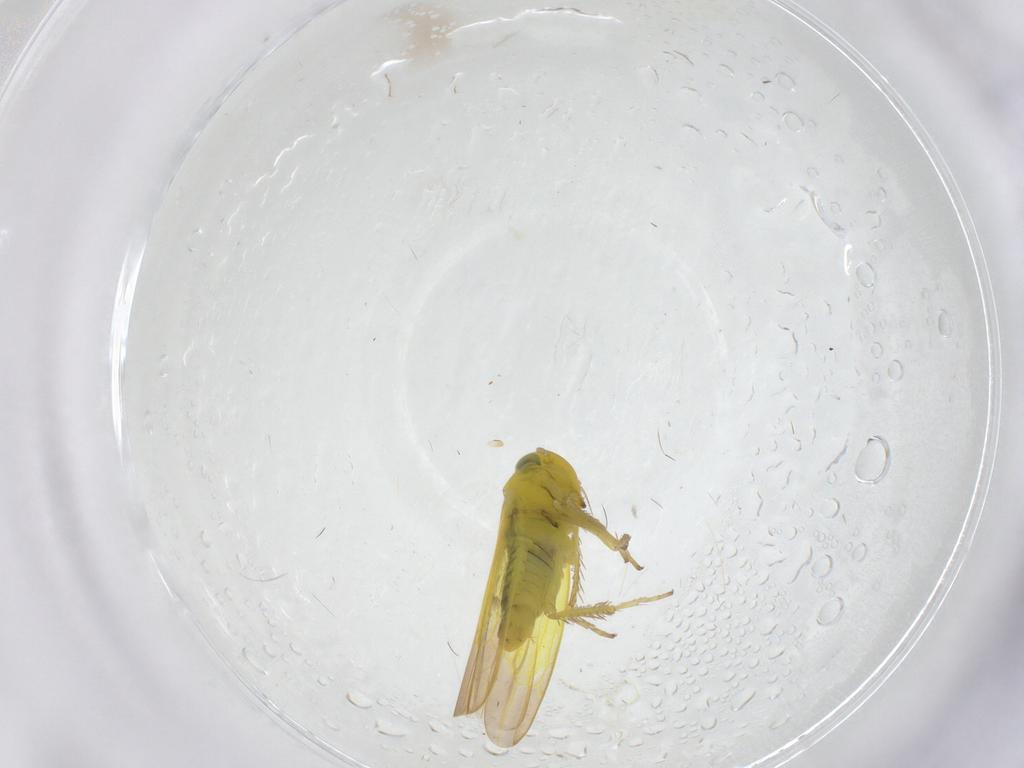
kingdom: Animalia
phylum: Arthropoda
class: Insecta
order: Hemiptera
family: Cicadellidae
